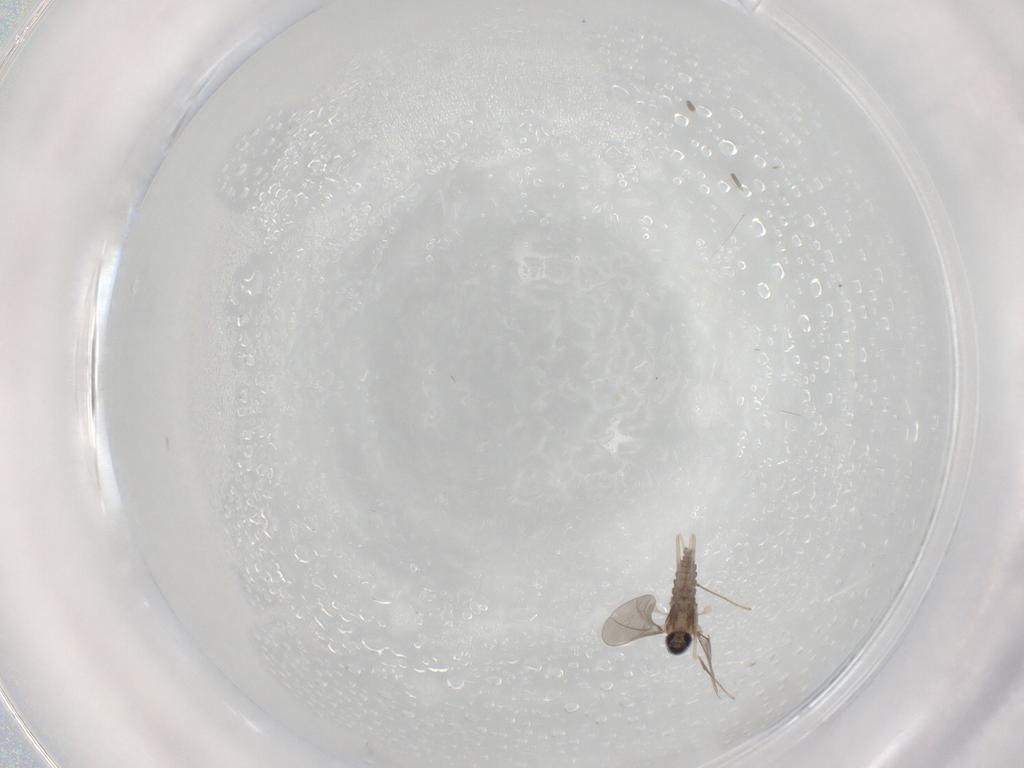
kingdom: Animalia
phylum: Arthropoda
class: Insecta
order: Diptera
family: Cecidomyiidae
